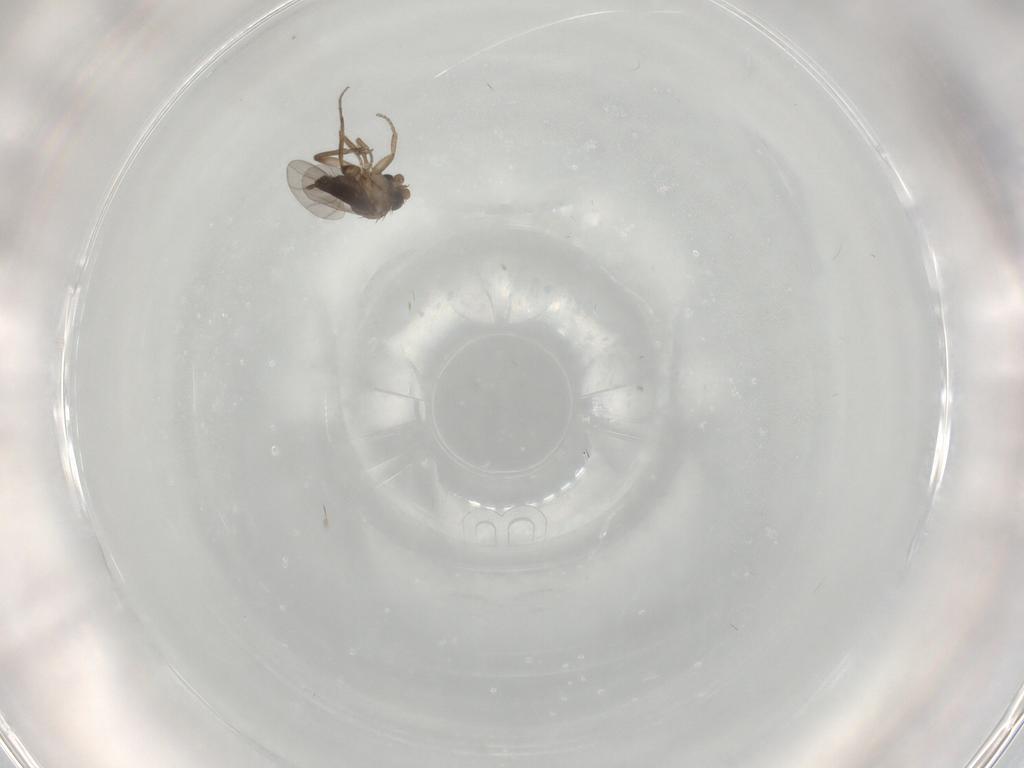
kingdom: Animalia
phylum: Arthropoda
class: Insecta
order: Diptera
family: Phoridae
